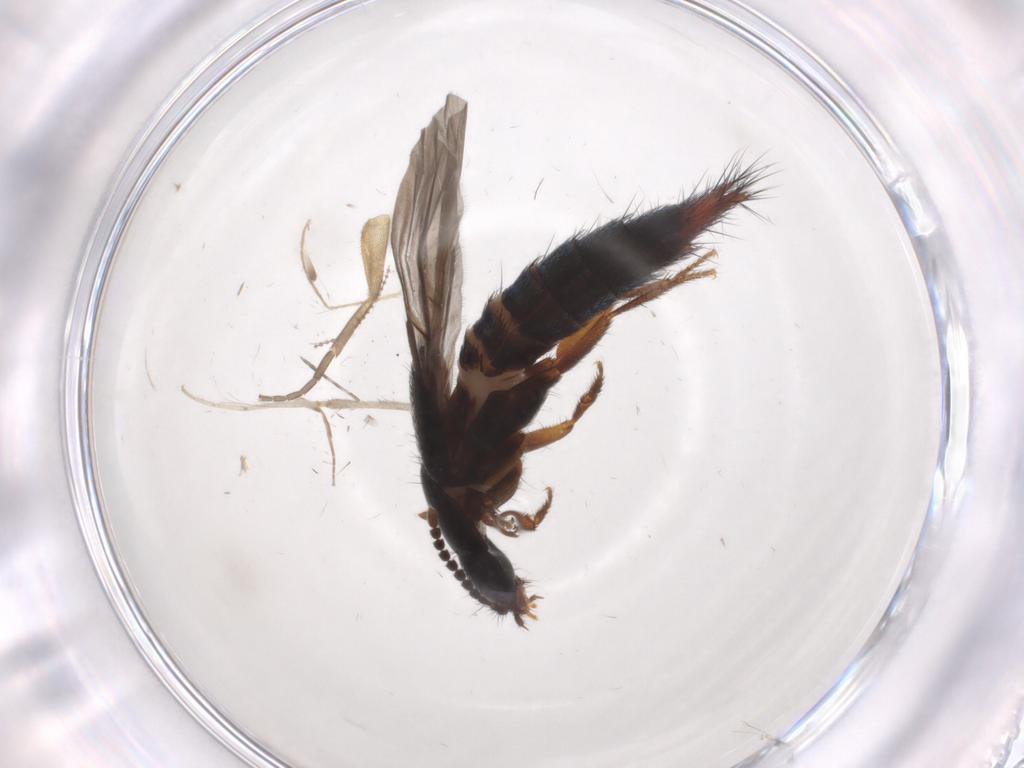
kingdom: Animalia
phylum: Arthropoda
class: Insecta
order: Coleoptera
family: Staphylinidae
